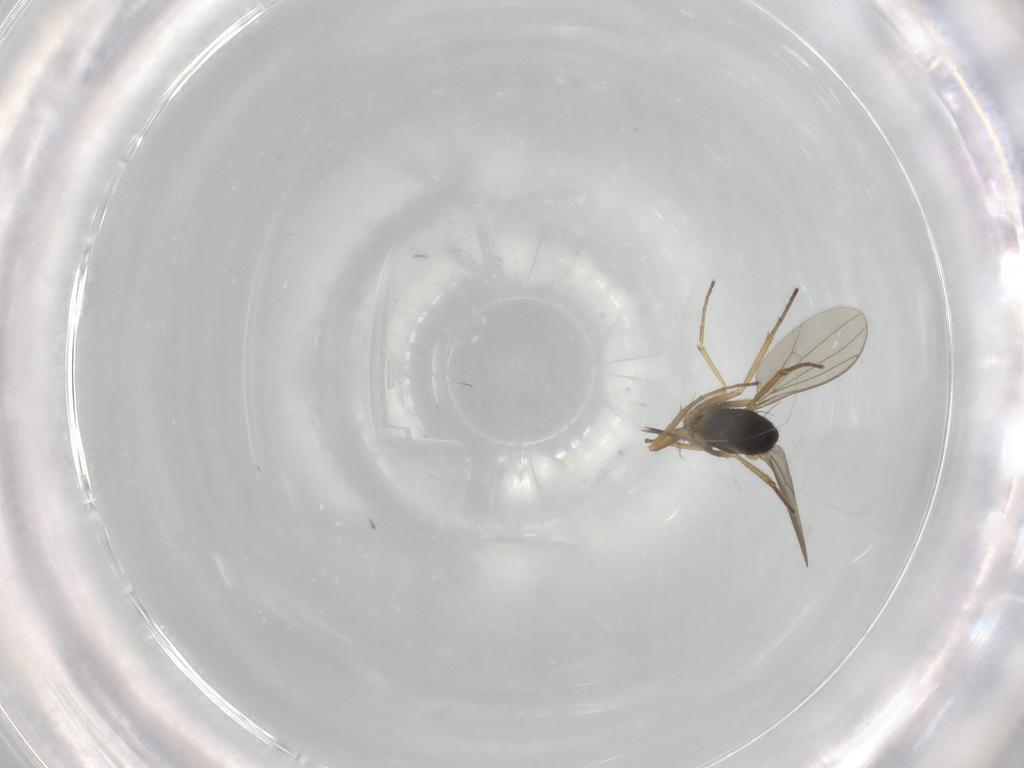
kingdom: Animalia
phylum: Arthropoda
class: Insecta
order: Diptera
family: Dolichopodidae
